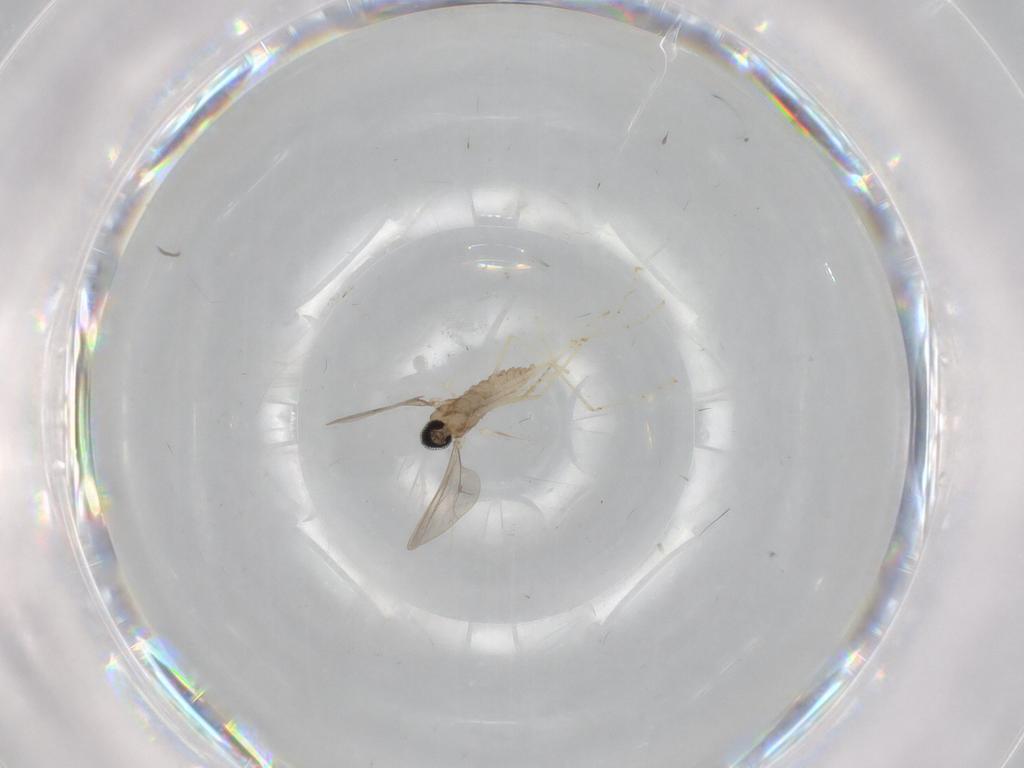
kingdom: Animalia
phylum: Arthropoda
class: Insecta
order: Diptera
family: Cecidomyiidae
